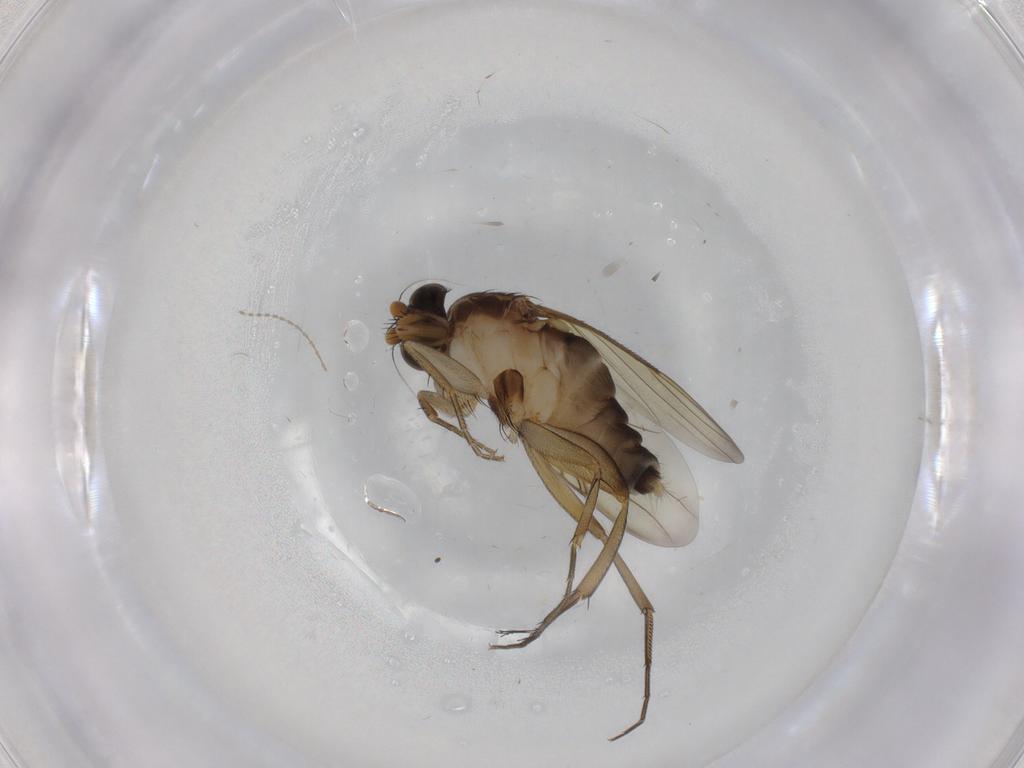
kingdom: Animalia
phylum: Arthropoda
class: Insecta
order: Diptera
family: Phoridae
